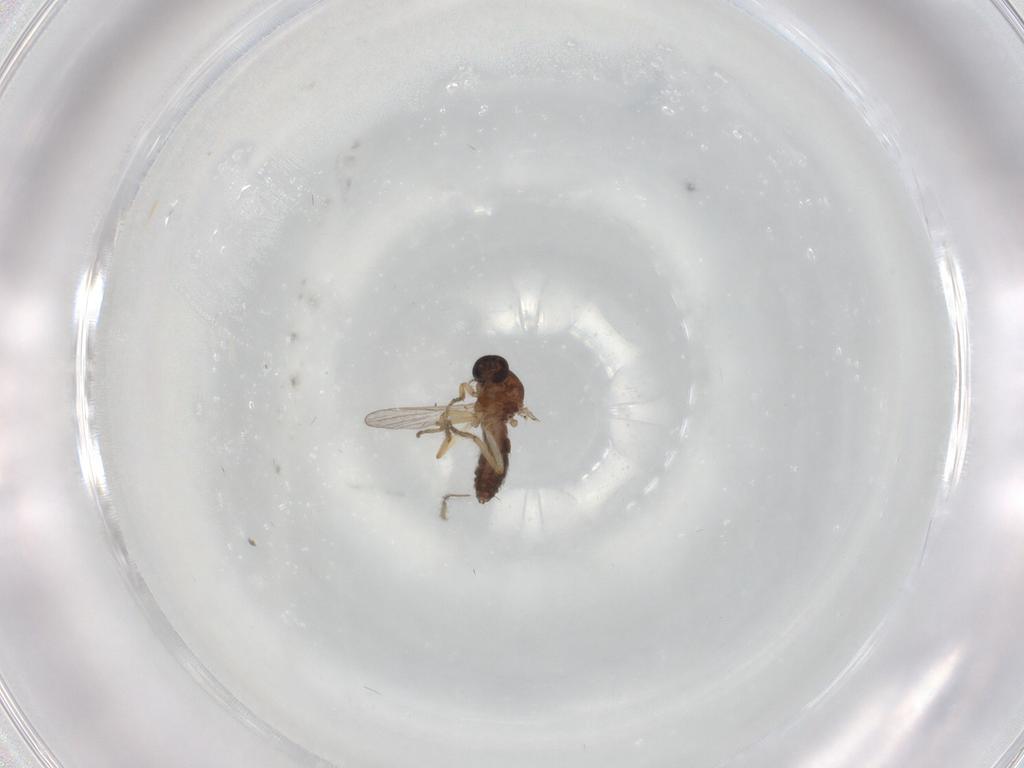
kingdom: Animalia
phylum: Arthropoda
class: Insecta
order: Diptera
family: Ceratopogonidae
